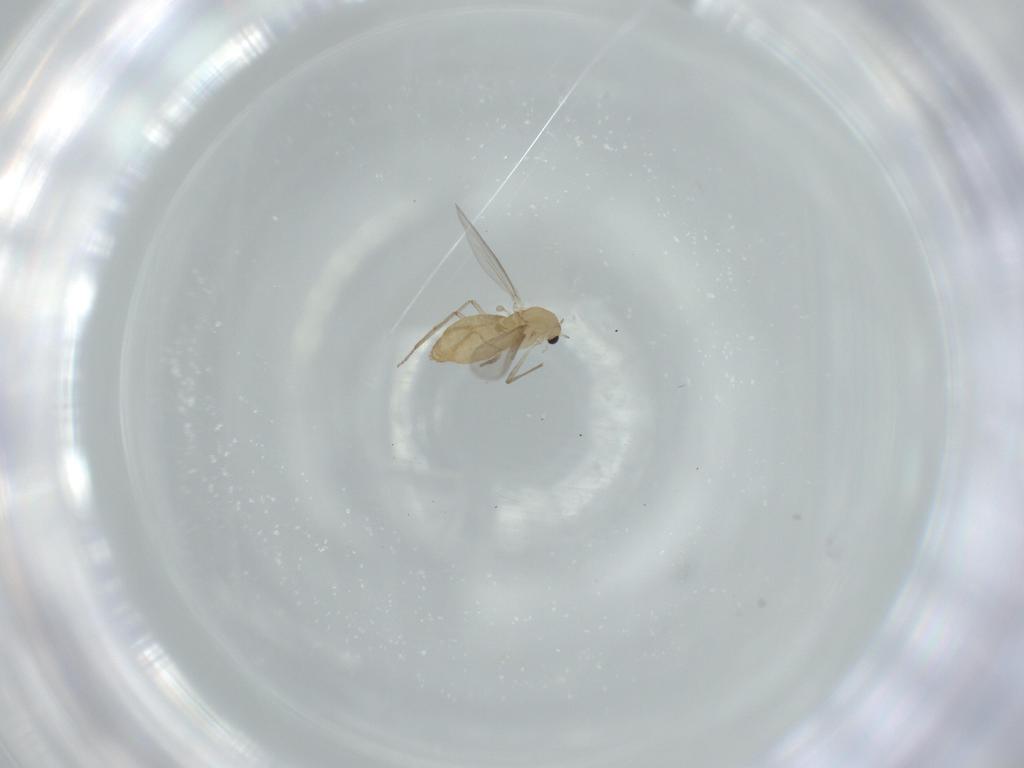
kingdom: Animalia
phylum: Arthropoda
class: Insecta
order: Diptera
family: Chironomidae
